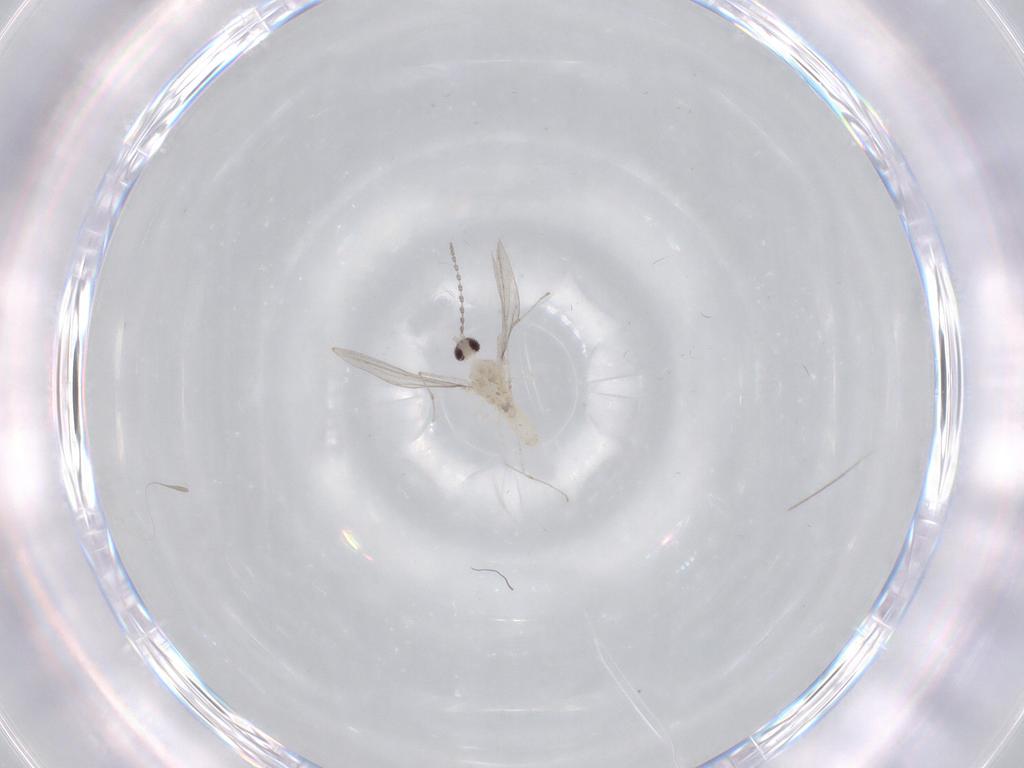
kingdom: Animalia
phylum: Arthropoda
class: Insecta
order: Diptera
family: Cecidomyiidae
